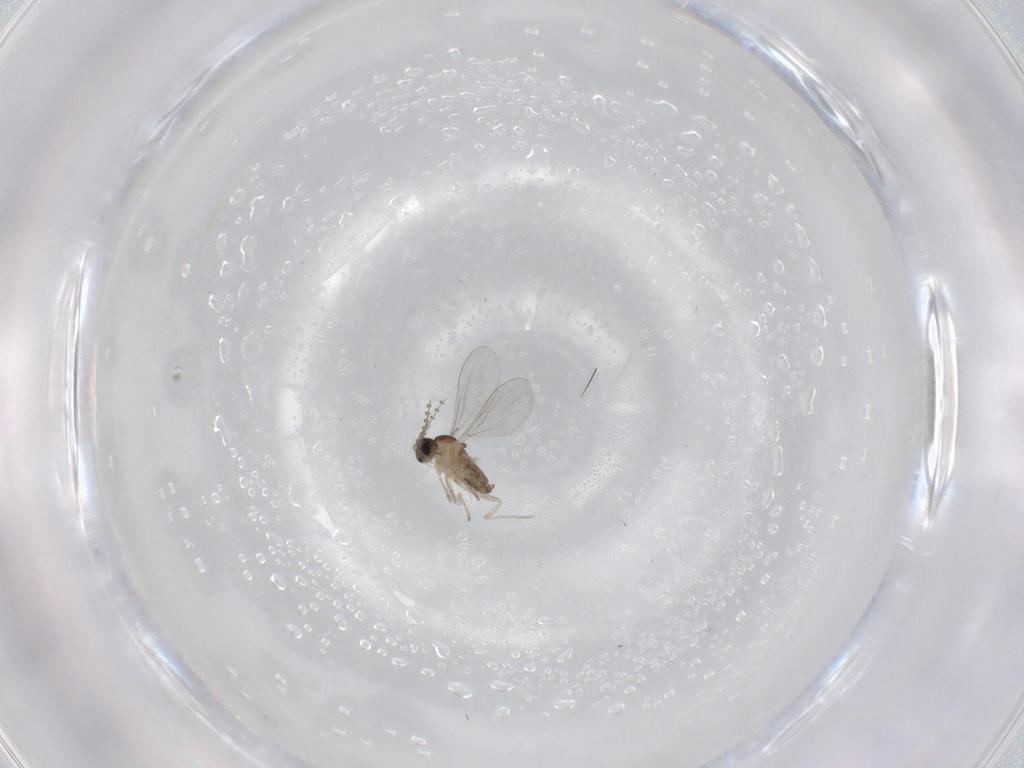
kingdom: Animalia
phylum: Arthropoda
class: Insecta
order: Diptera
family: Cecidomyiidae
